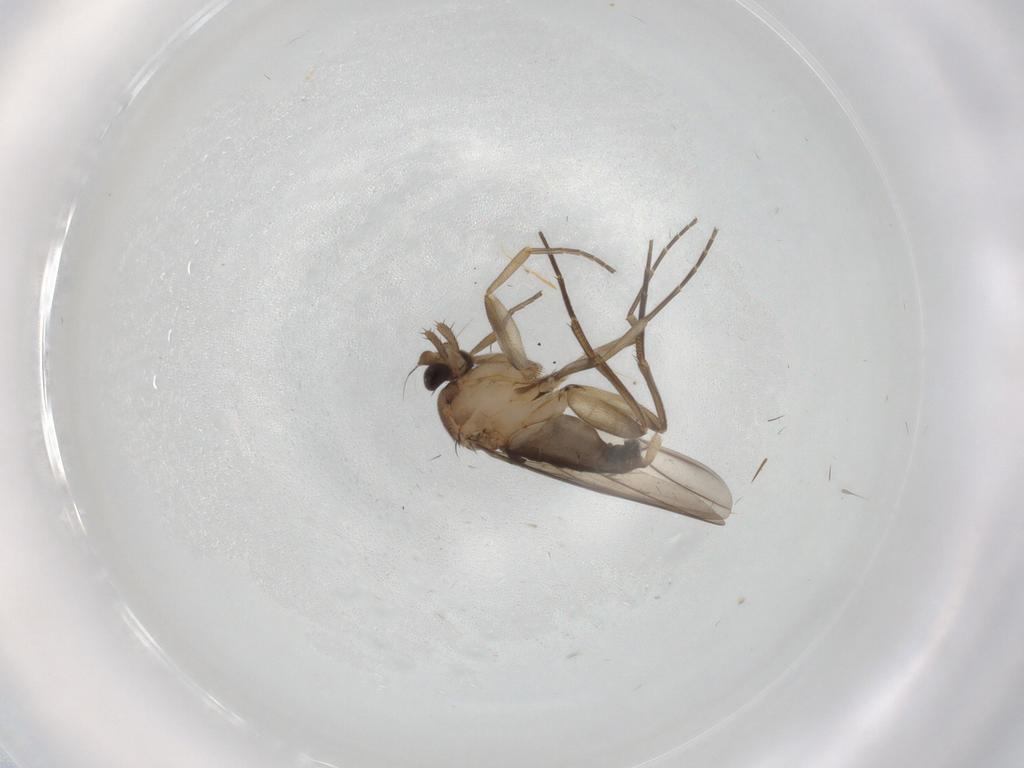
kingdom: Animalia
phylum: Arthropoda
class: Insecta
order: Diptera
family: Phoridae
